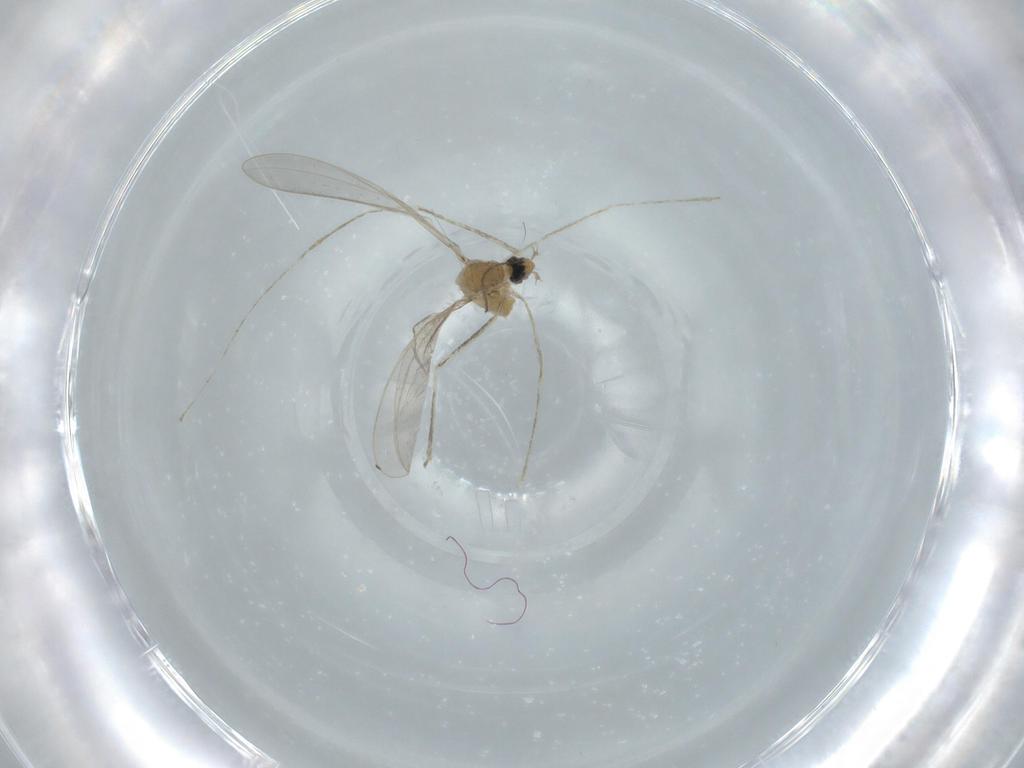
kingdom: Animalia
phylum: Arthropoda
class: Insecta
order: Diptera
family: Cecidomyiidae
